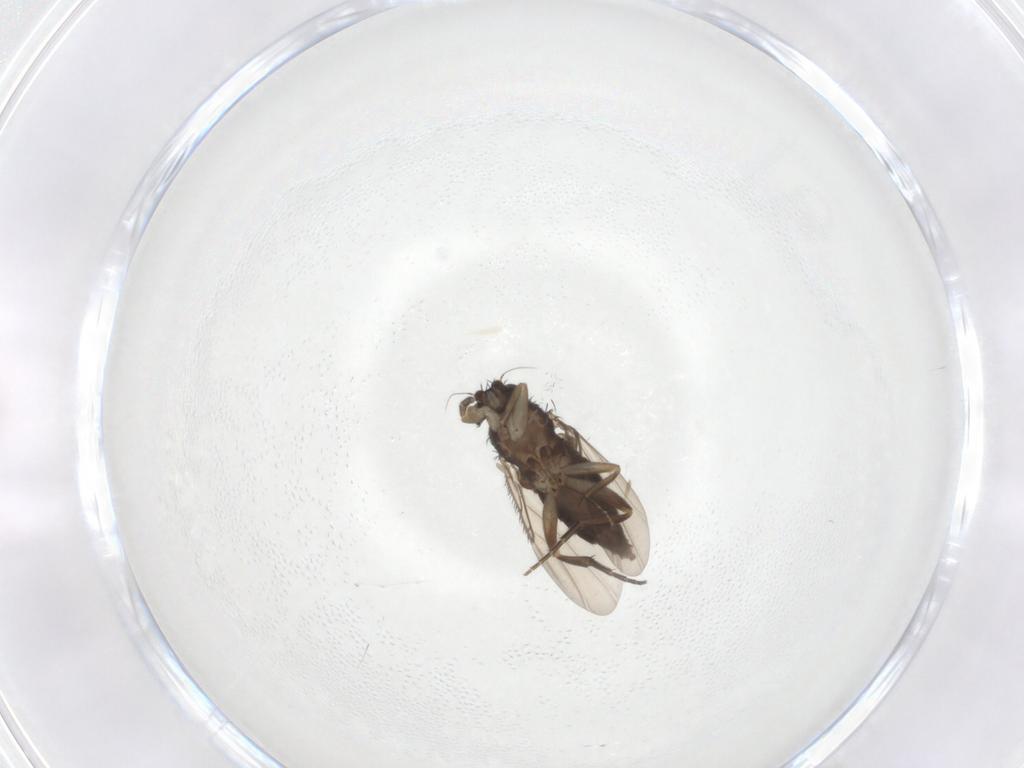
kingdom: Animalia
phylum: Arthropoda
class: Insecta
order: Diptera
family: Phoridae
